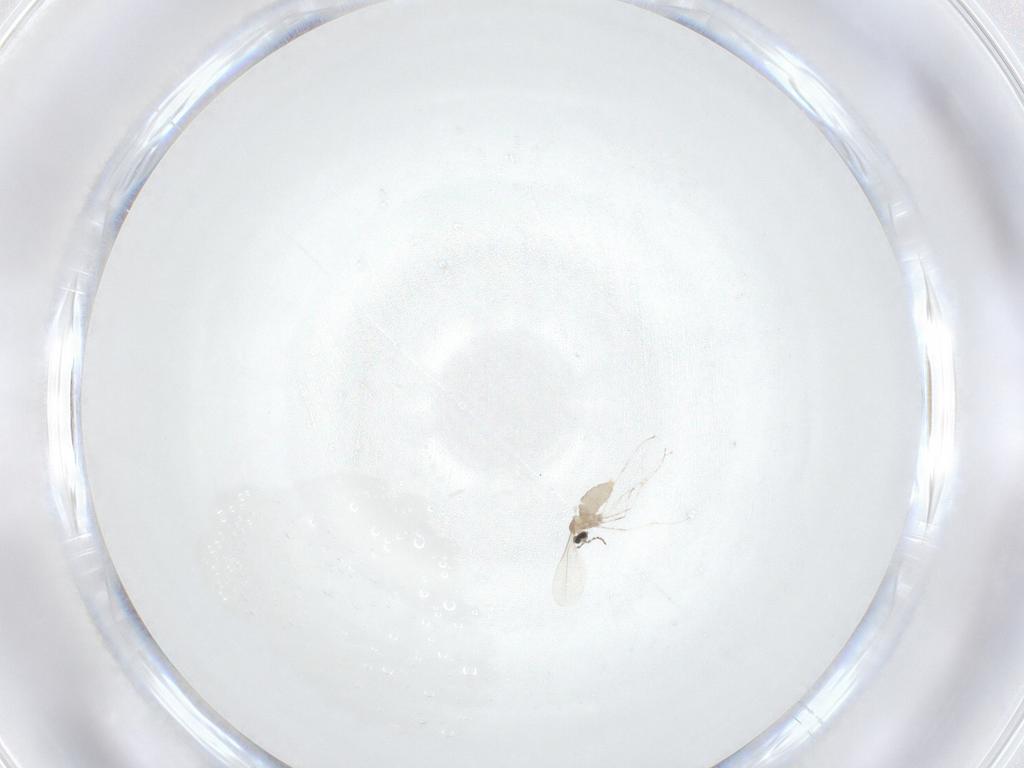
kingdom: Animalia
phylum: Arthropoda
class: Insecta
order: Diptera
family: Cecidomyiidae
